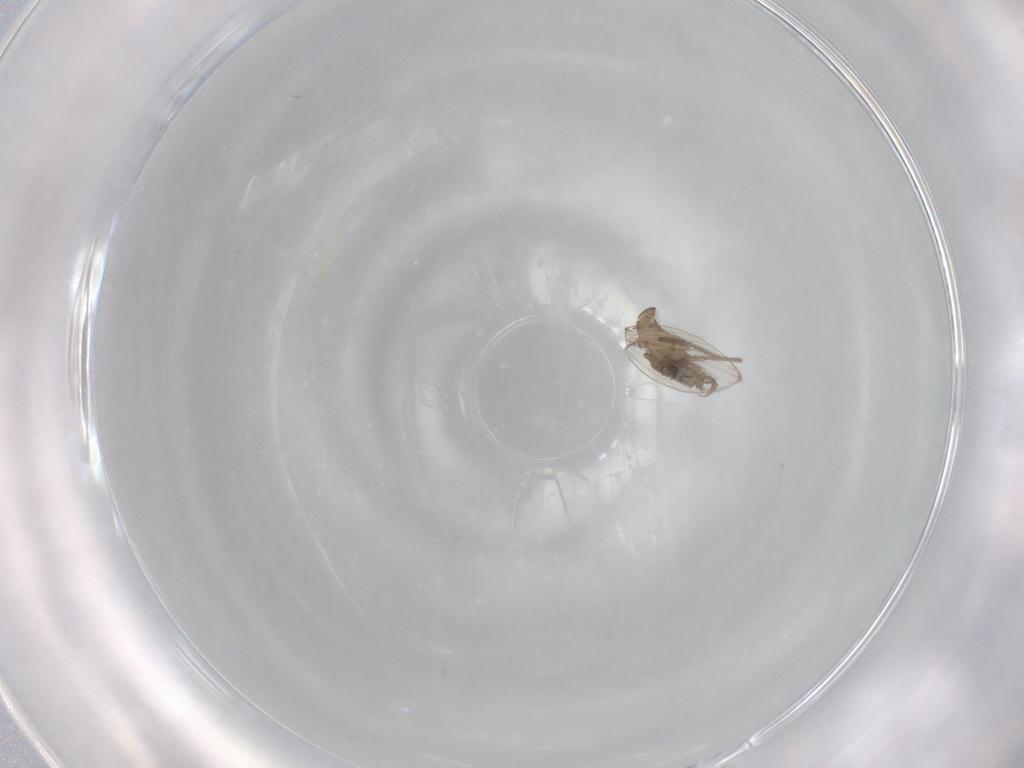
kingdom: Animalia
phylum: Arthropoda
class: Insecta
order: Diptera
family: Psychodidae
